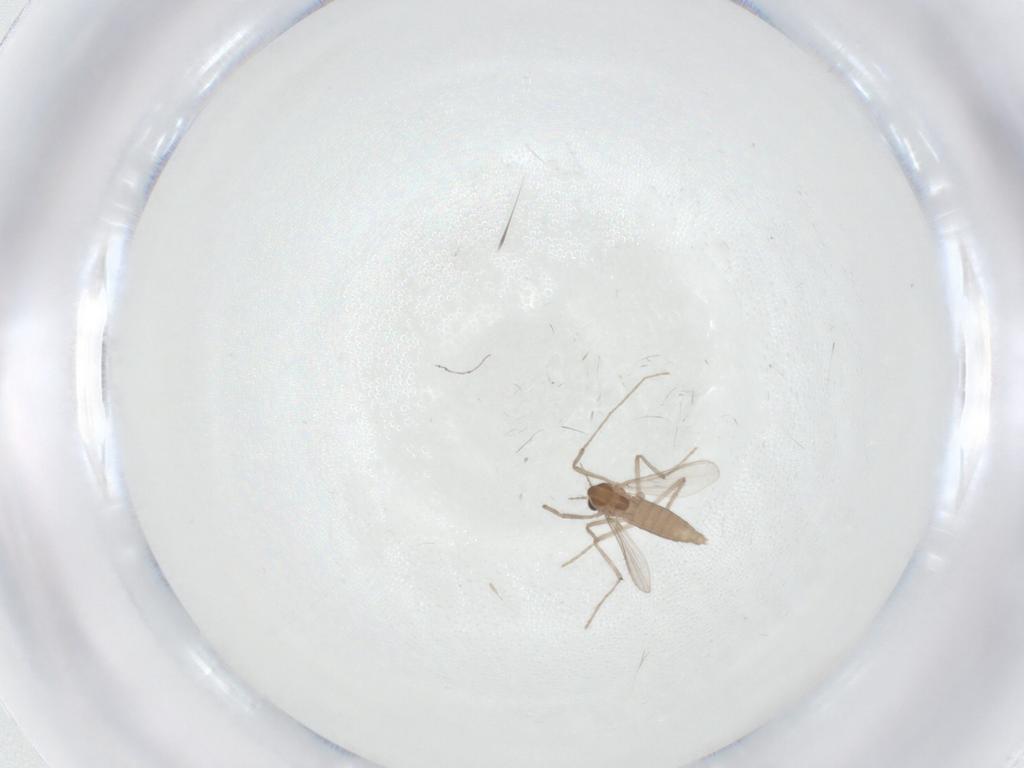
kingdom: Animalia
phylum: Arthropoda
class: Insecta
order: Diptera
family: Chironomidae
